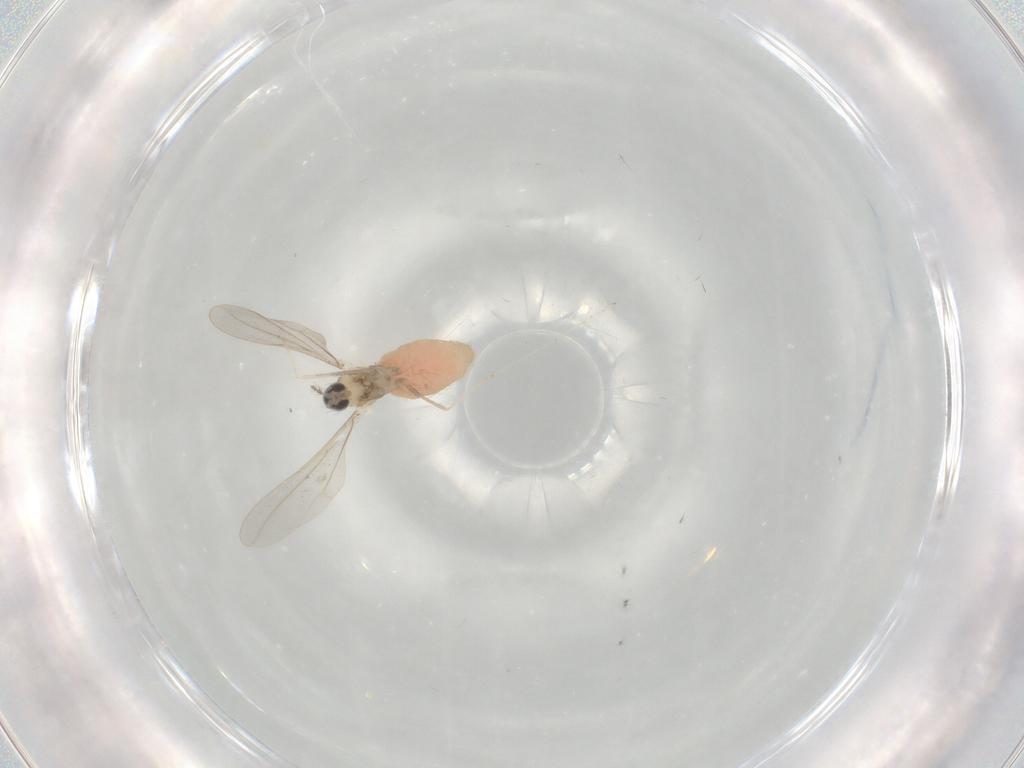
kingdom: Animalia
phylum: Arthropoda
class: Insecta
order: Diptera
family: Cecidomyiidae
